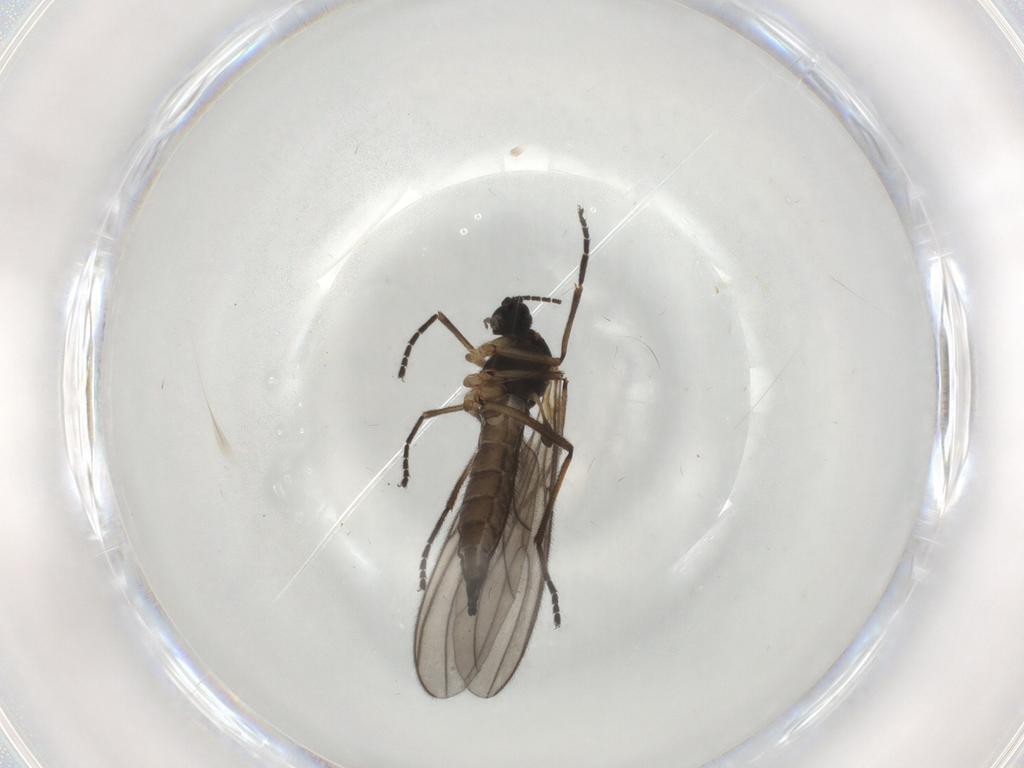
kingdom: Animalia
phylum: Arthropoda
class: Insecta
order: Diptera
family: Sciaridae
